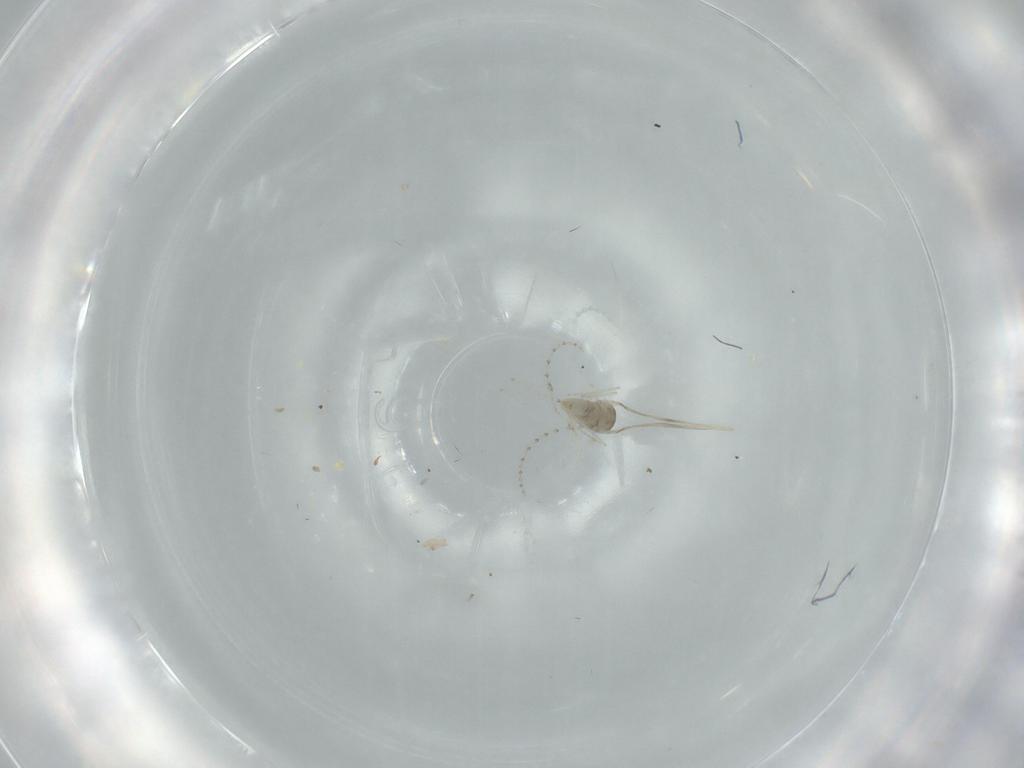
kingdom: Animalia
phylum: Arthropoda
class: Insecta
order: Diptera
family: Cecidomyiidae
